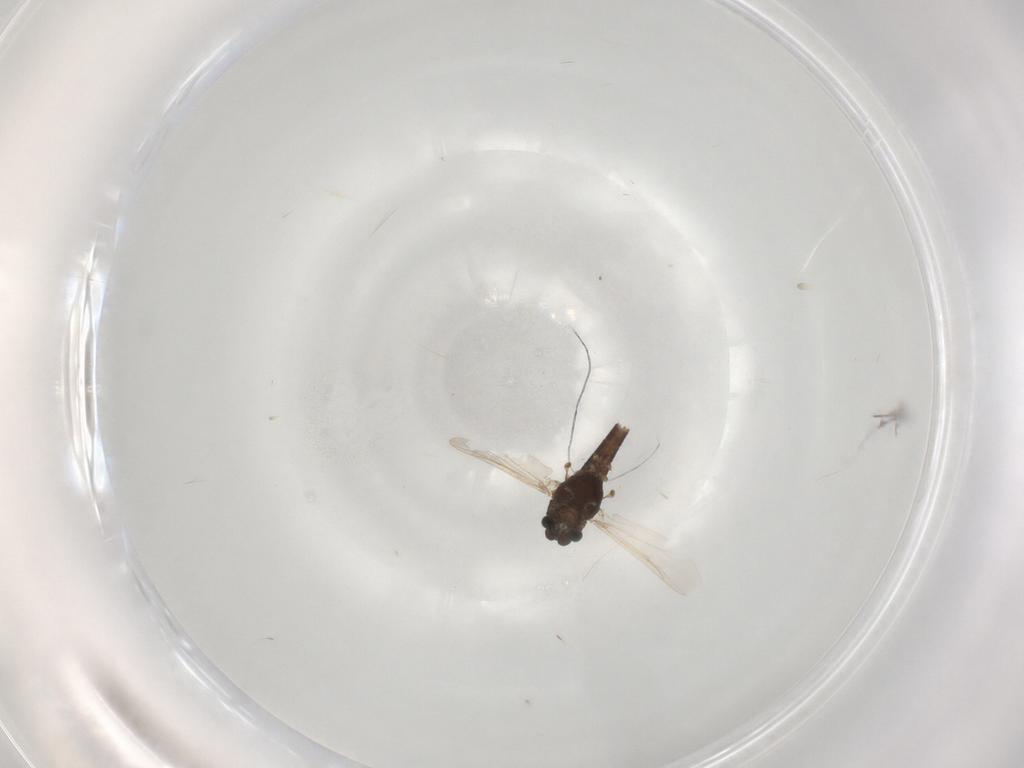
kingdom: Animalia
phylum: Arthropoda
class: Insecta
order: Diptera
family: Chironomidae
